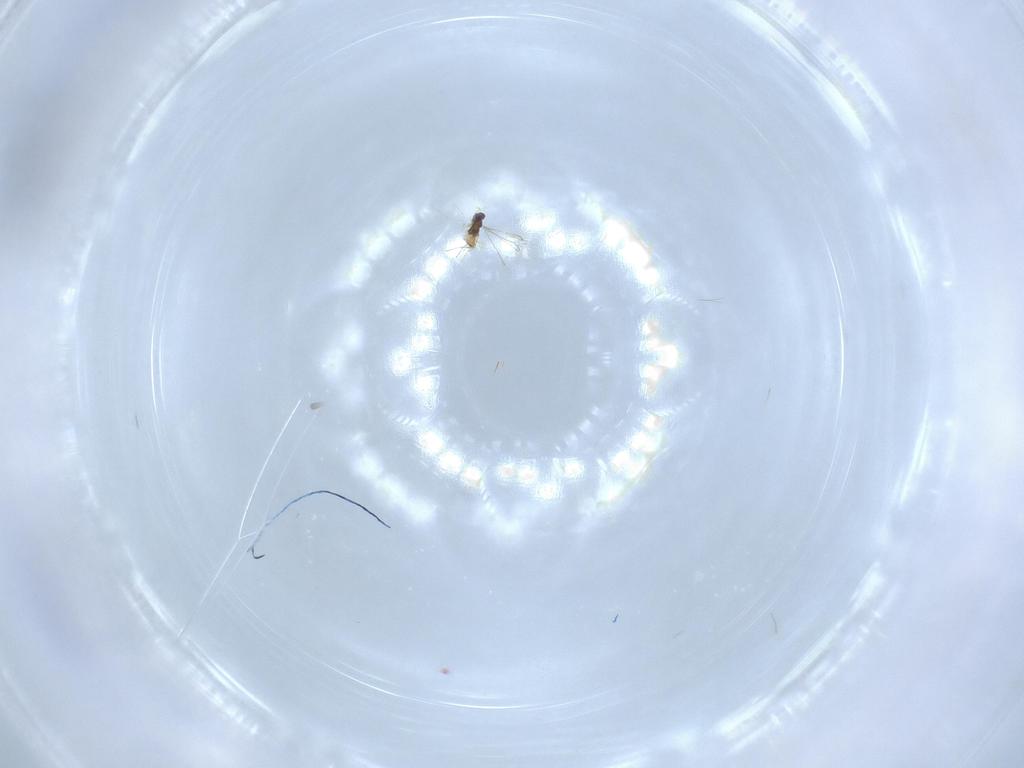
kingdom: Animalia
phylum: Arthropoda
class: Insecta
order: Hymenoptera
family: Mymaridae
